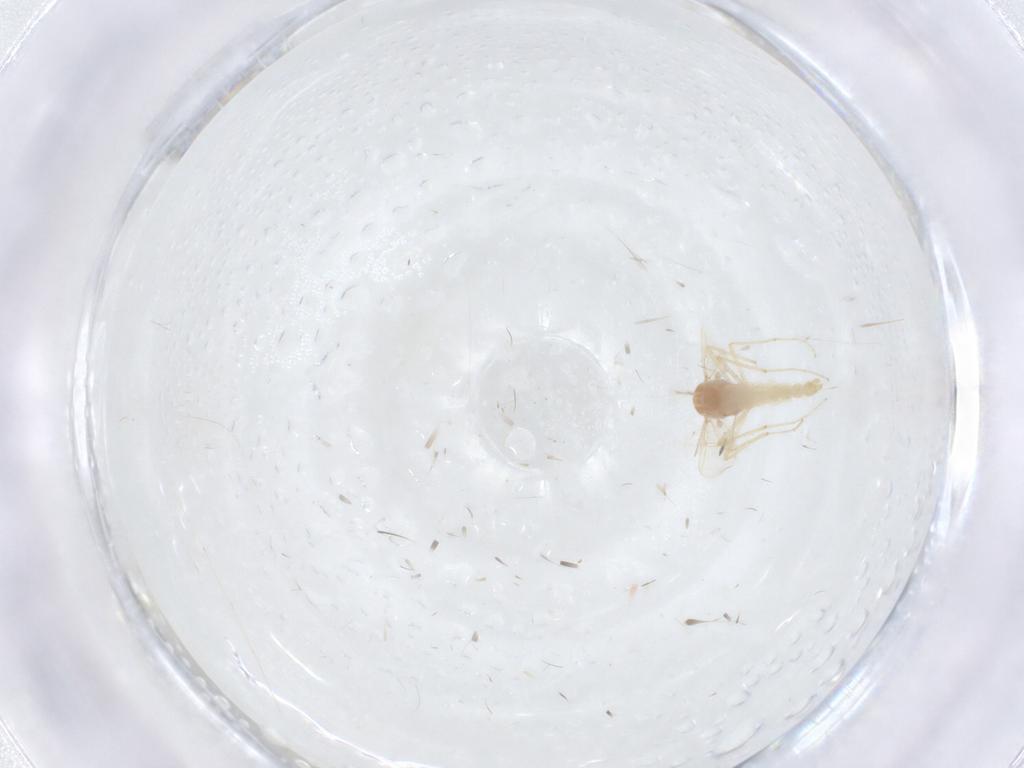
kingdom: Animalia
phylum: Arthropoda
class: Insecta
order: Diptera
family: Chironomidae
